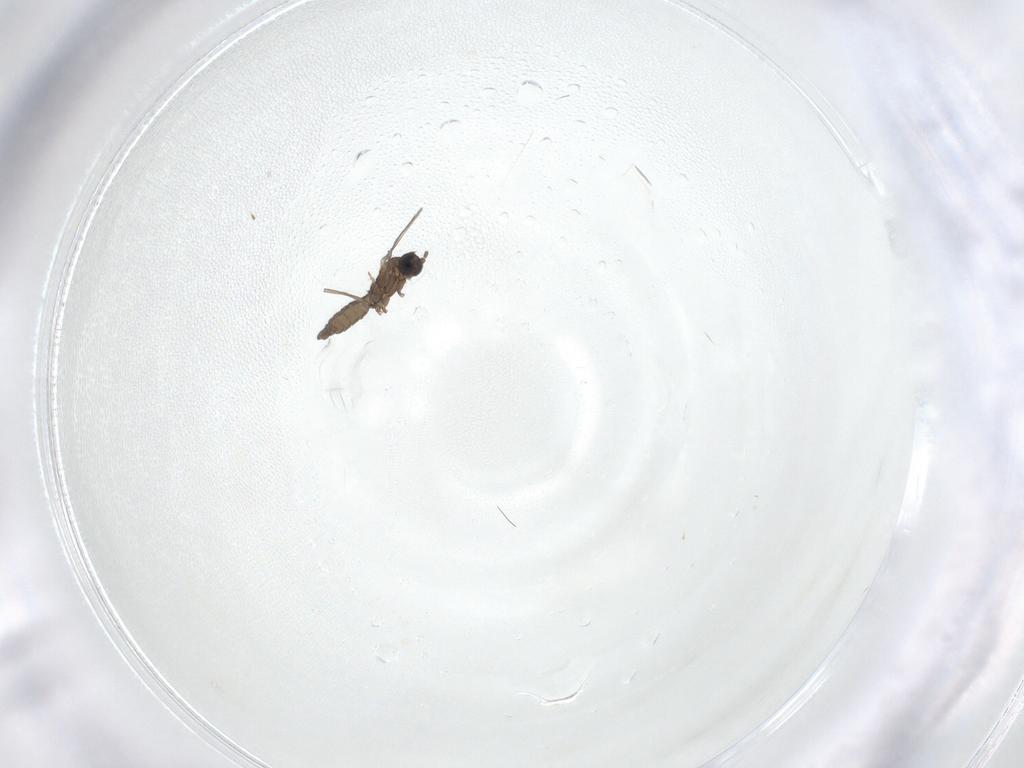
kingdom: Animalia
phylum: Arthropoda
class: Insecta
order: Diptera
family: Sciaridae
